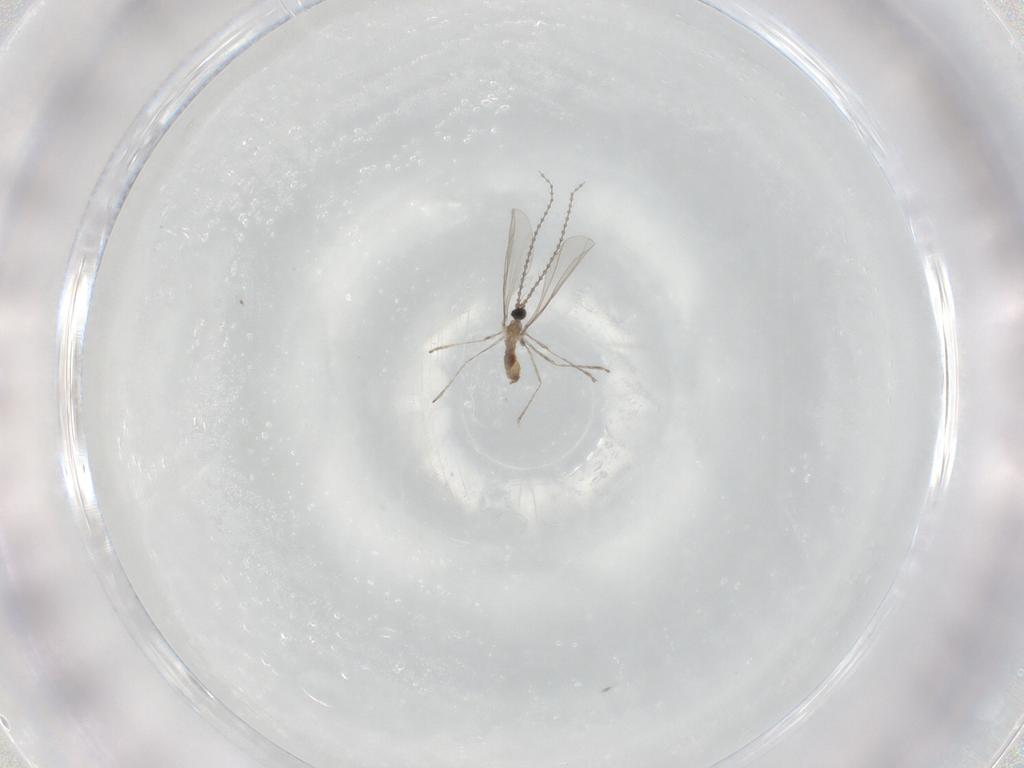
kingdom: Animalia
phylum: Arthropoda
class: Insecta
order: Diptera
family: Cecidomyiidae
